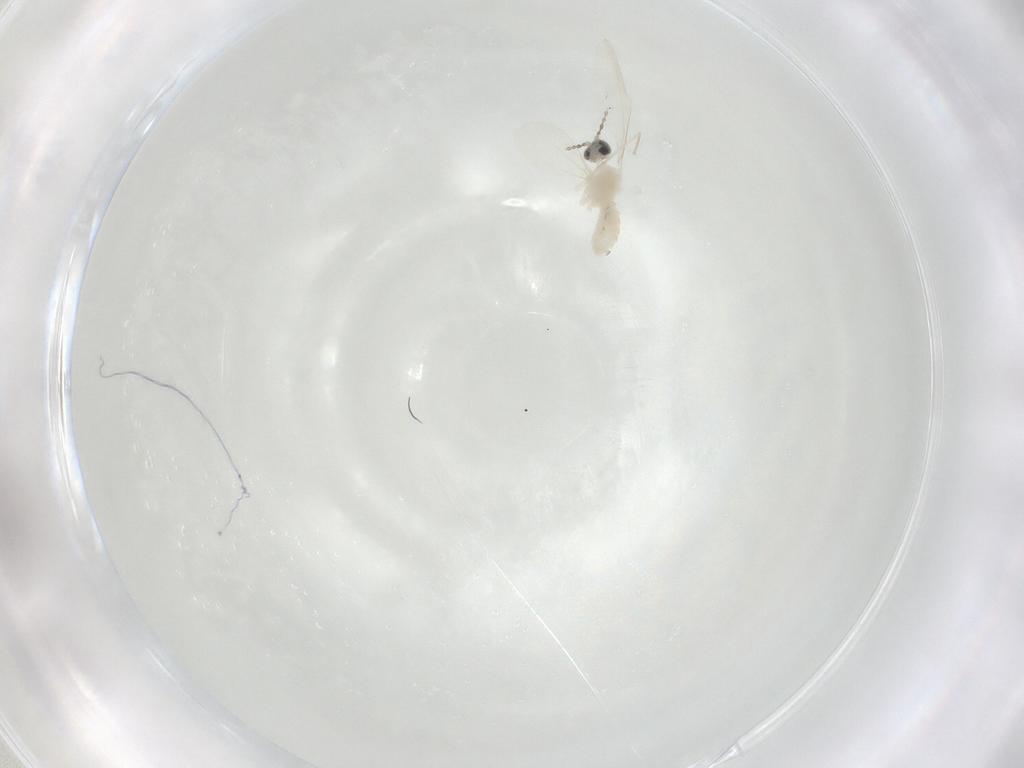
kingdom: Animalia
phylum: Arthropoda
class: Insecta
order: Diptera
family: Cecidomyiidae
